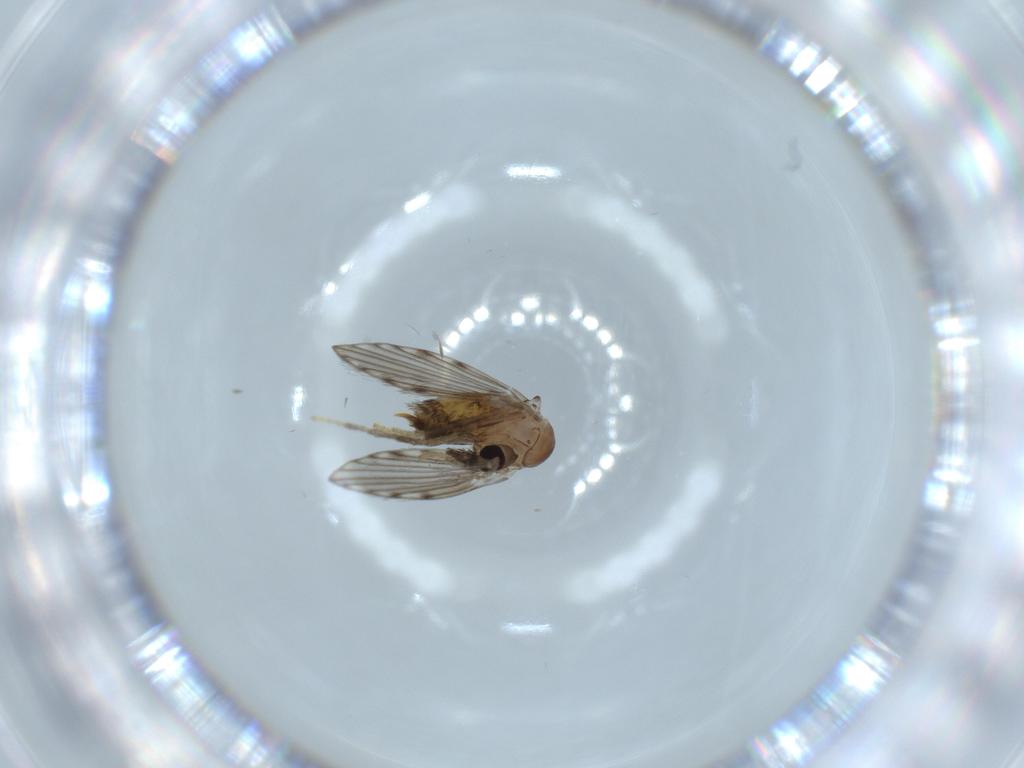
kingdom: Animalia
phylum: Arthropoda
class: Insecta
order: Diptera
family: Psychodidae
